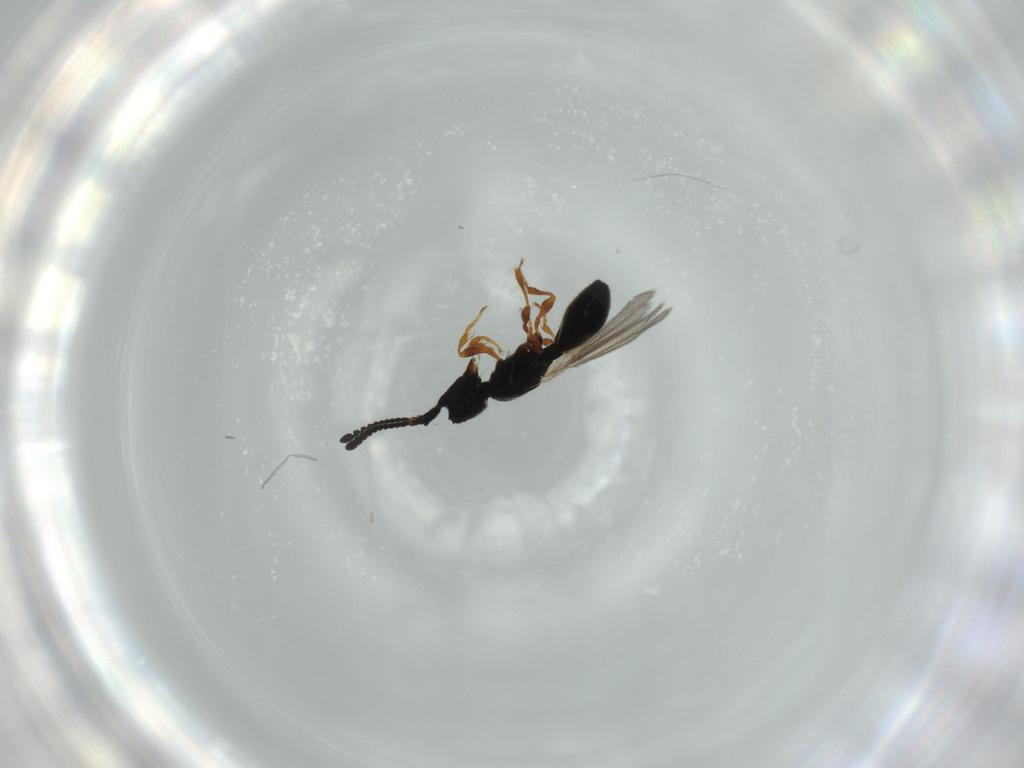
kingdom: Animalia
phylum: Arthropoda
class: Insecta
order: Hymenoptera
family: Diapriidae
